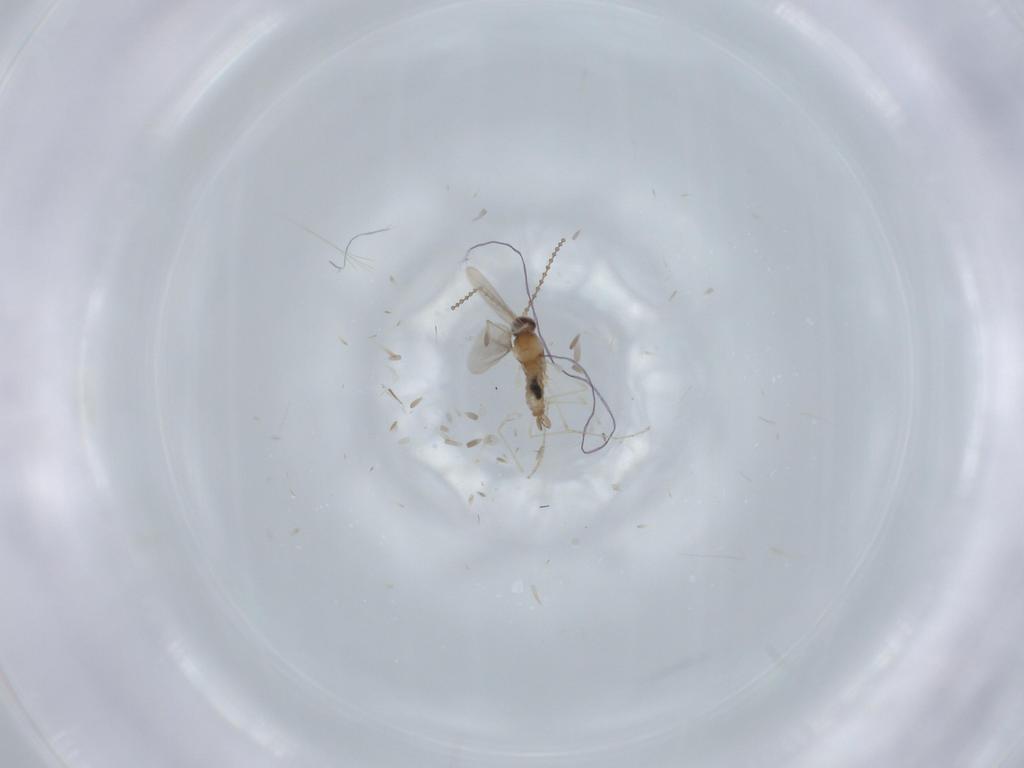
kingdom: Animalia
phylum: Arthropoda
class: Insecta
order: Diptera
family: Cecidomyiidae
